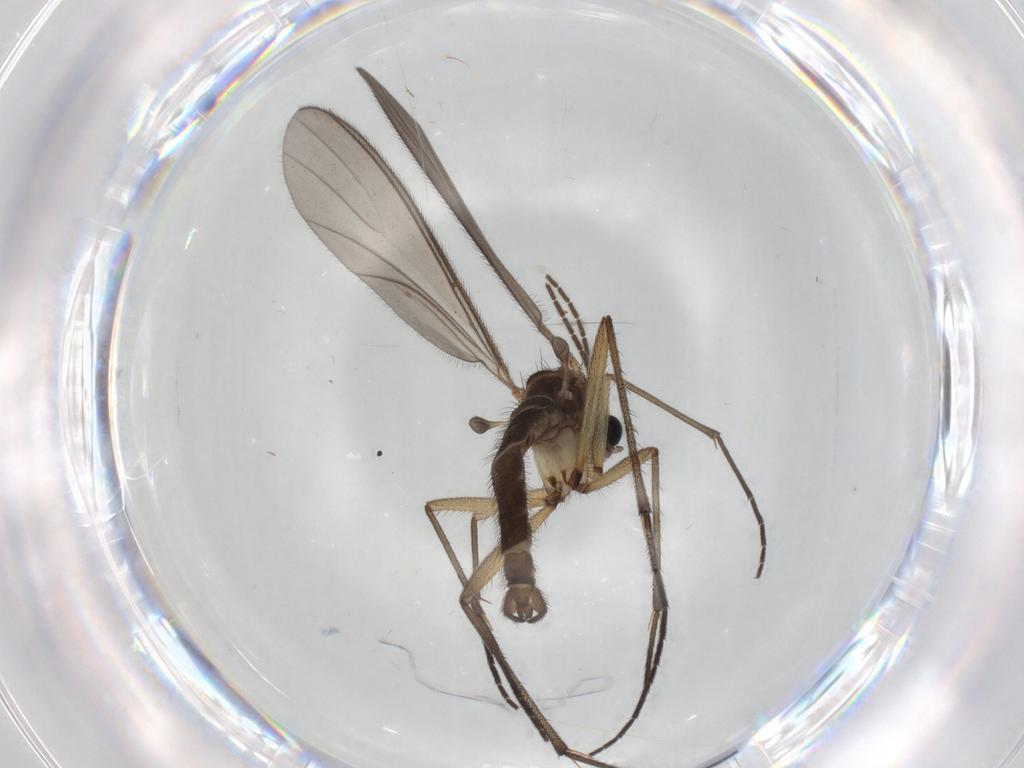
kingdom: Animalia
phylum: Arthropoda
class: Insecta
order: Diptera
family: Sciaridae
